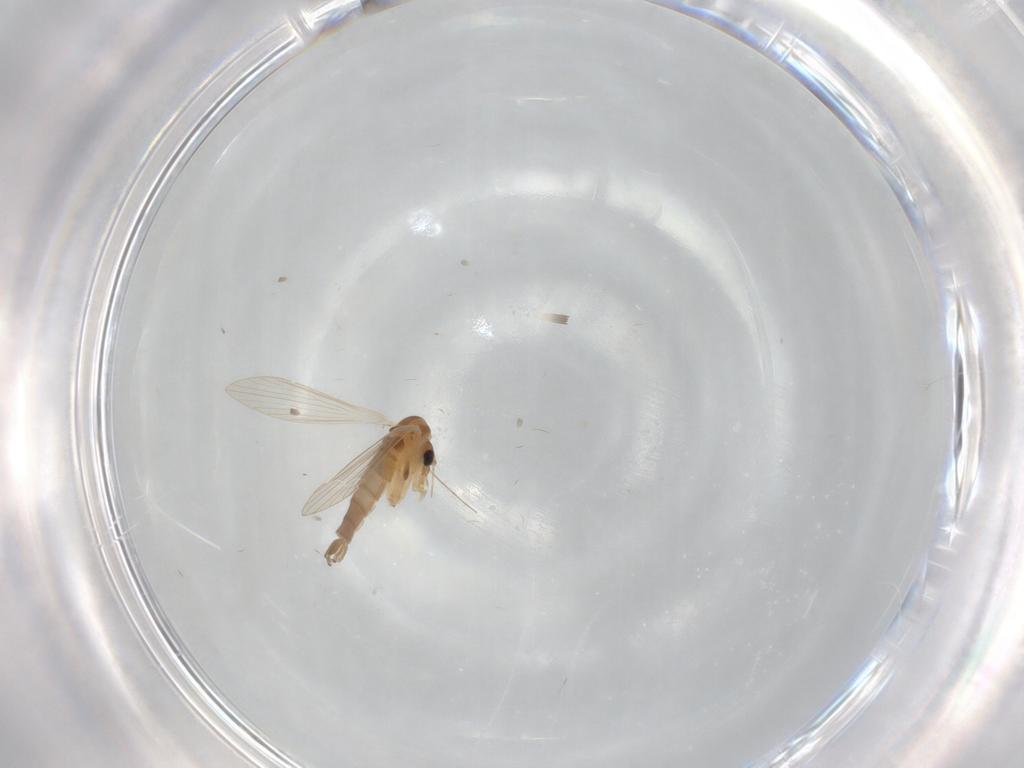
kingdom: Animalia
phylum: Arthropoda
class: Insecta
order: Diptera
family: Psychodidae
